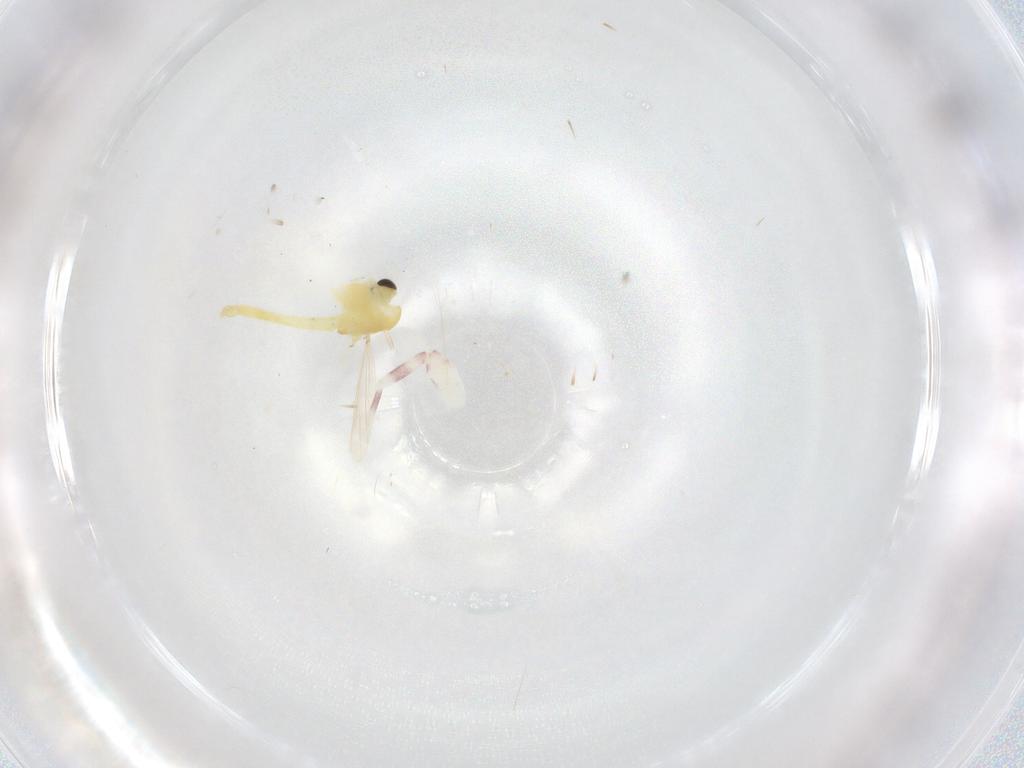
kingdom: Animalia
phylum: Arthropoda
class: Insecta
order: Diptera
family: Chironomidae
